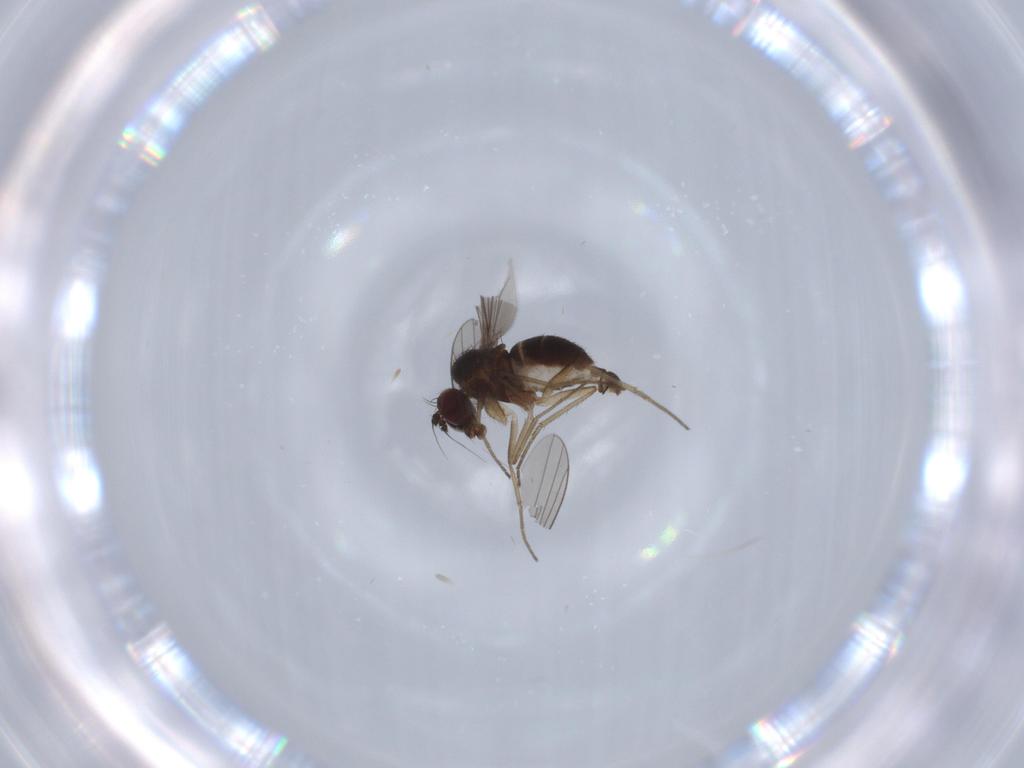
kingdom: Animalia
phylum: Arthropoda
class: Insecta
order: Diptera
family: Dolichopodidae
